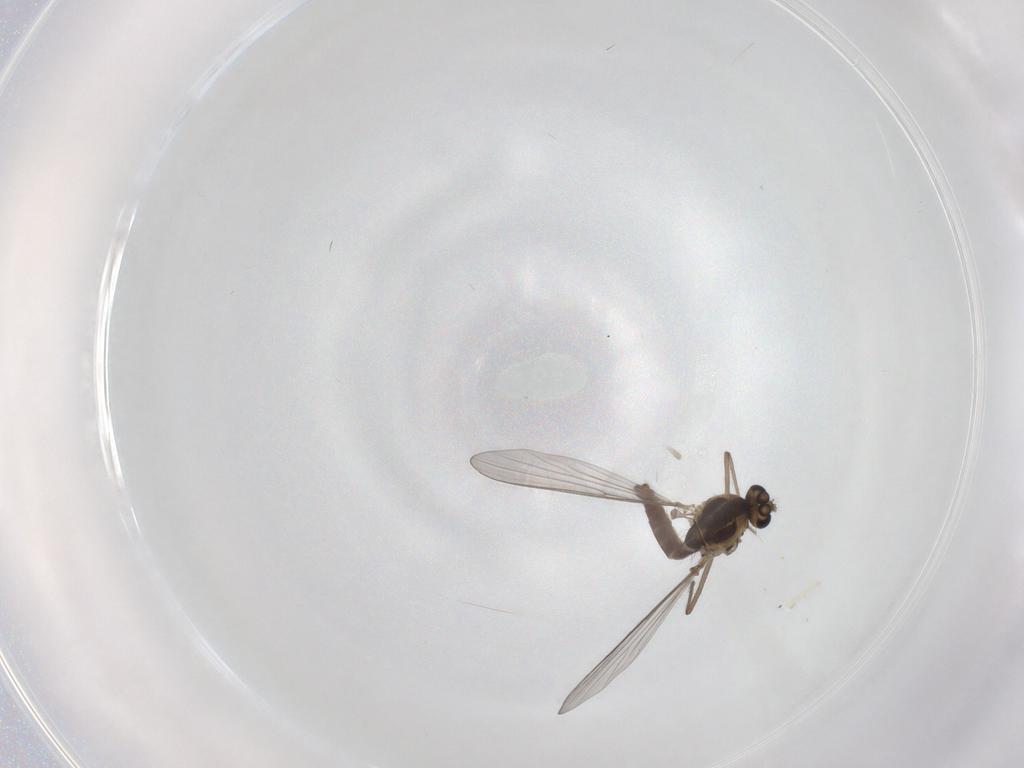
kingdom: Animalia
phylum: Arthropoda
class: Insecta
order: Diptera
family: Chironomidae
